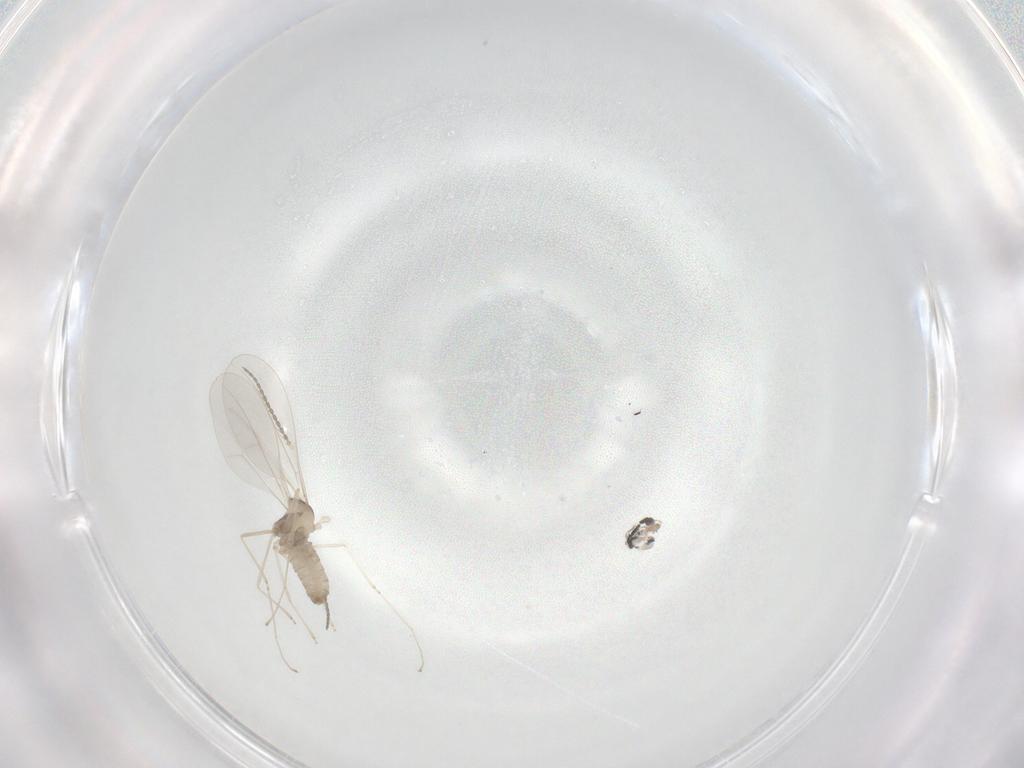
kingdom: Animalia
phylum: Arthropoda
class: Insecta
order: Diptera
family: Cecidomyiidae
